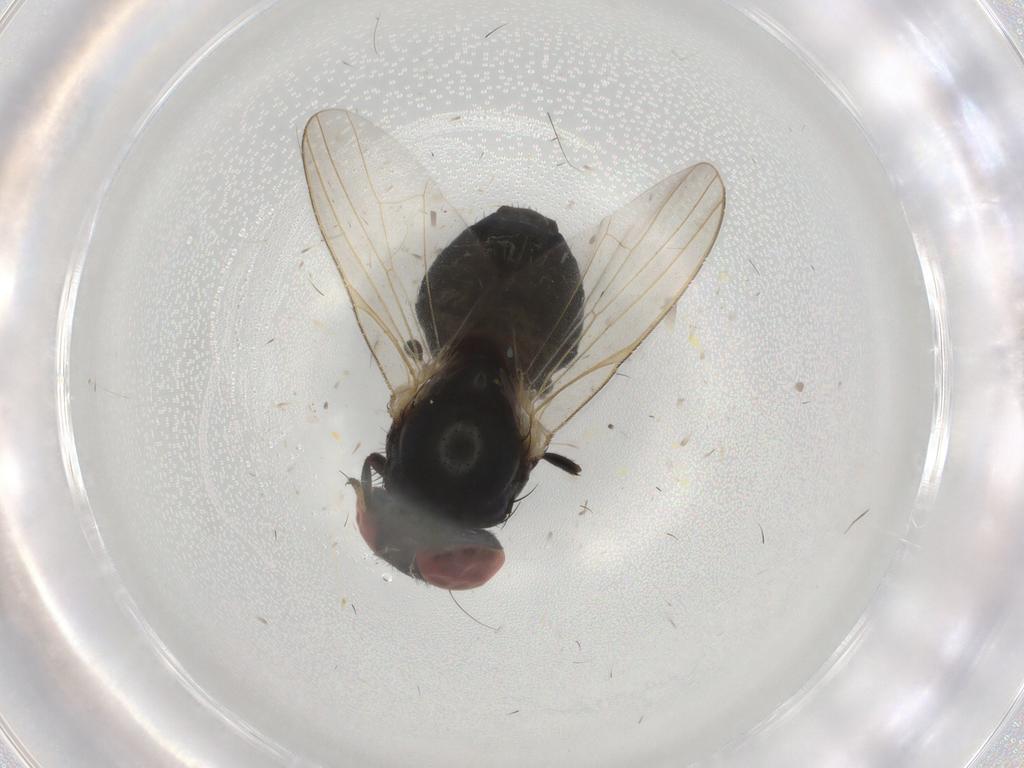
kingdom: Animalia
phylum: Arthropoda
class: Insecta
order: Diptera
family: Lonchaeidae
